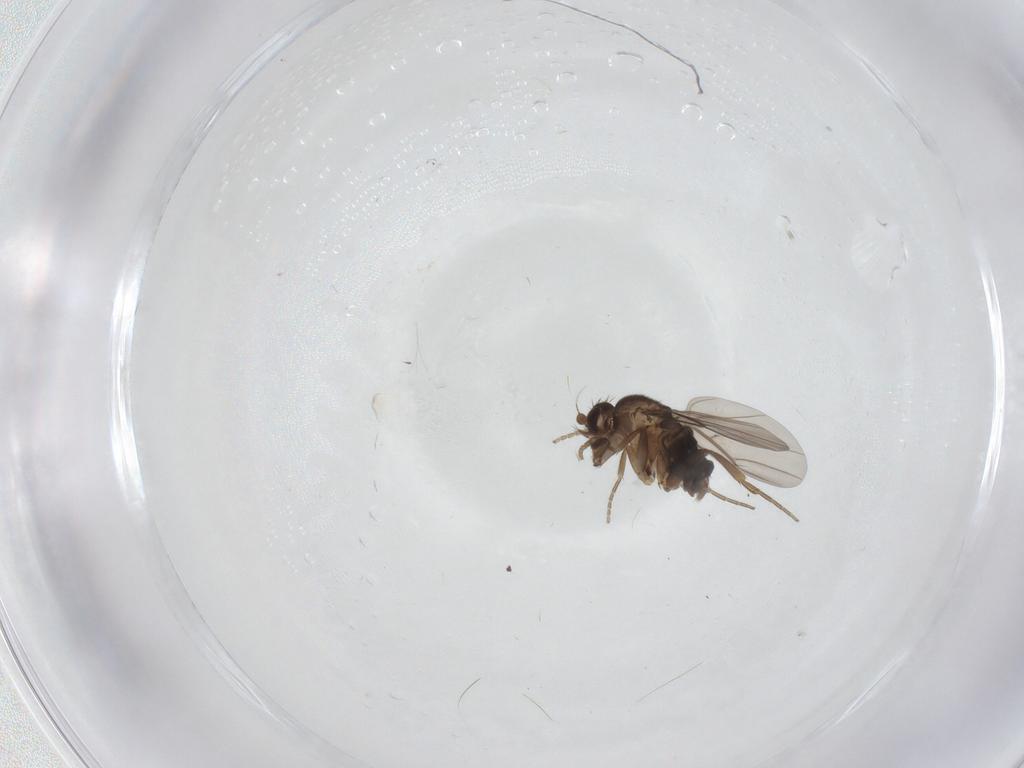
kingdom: Animalia
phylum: Arthropoda
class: Insecta
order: Diptera
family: Phoridae
